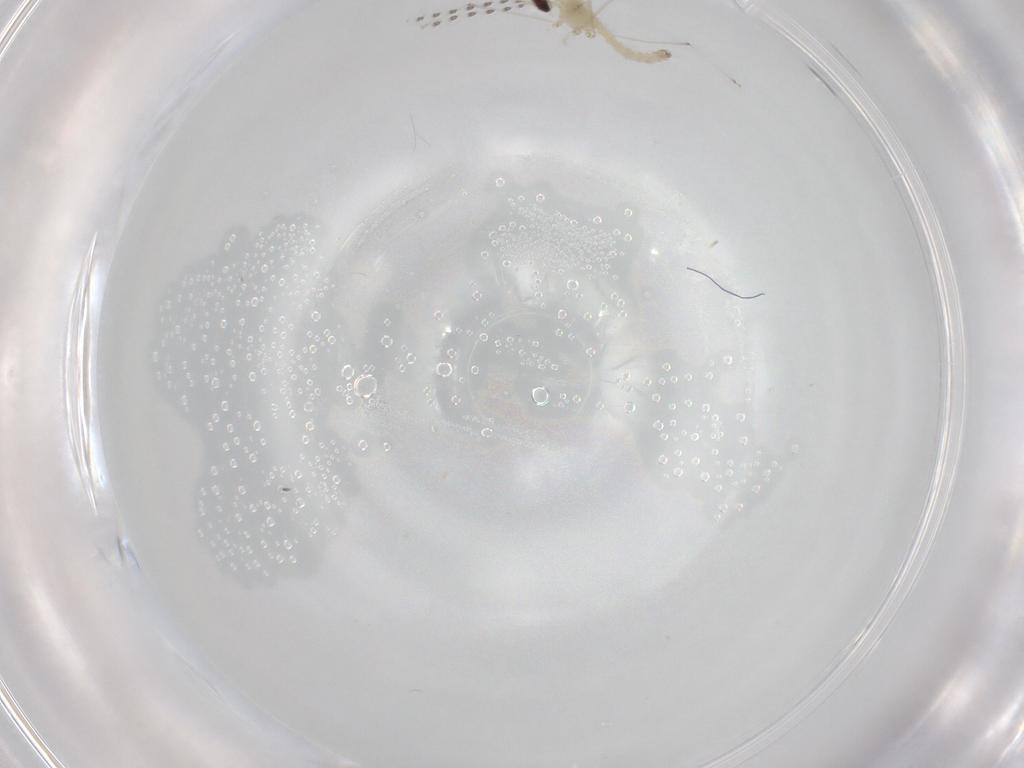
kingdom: Animalia
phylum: Arthropoda
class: Insecta
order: Diptera
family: Cecidomyiidae
